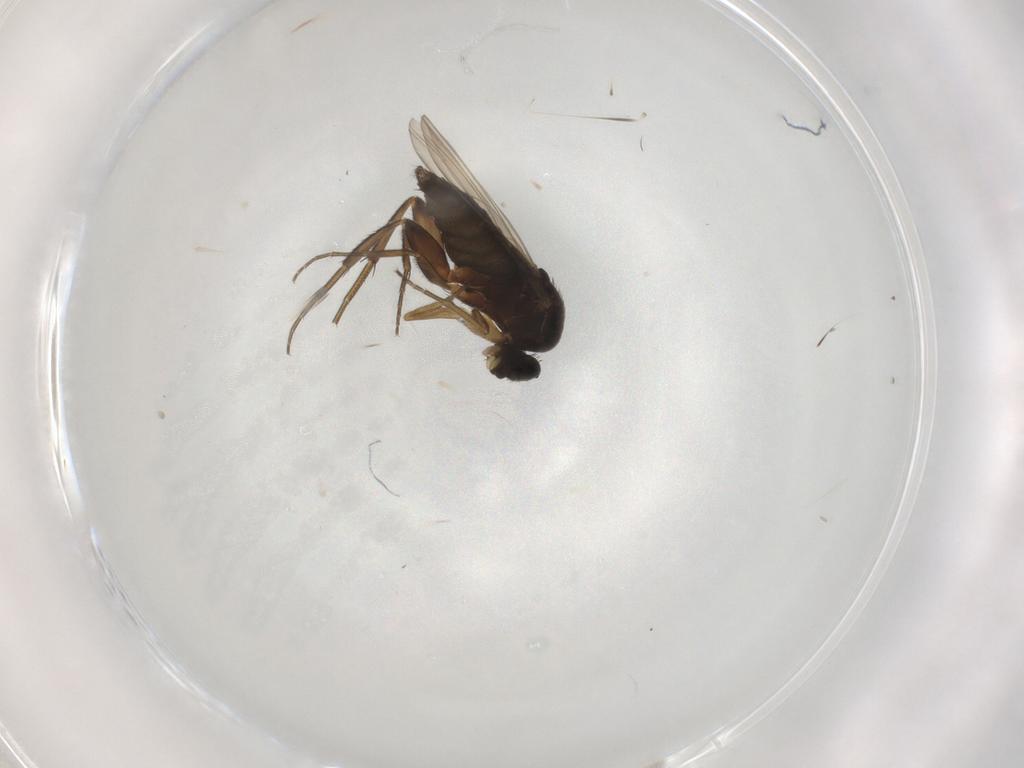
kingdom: Animalia
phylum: Arthropoda
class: Insecta
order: Diptera
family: Phoridae
